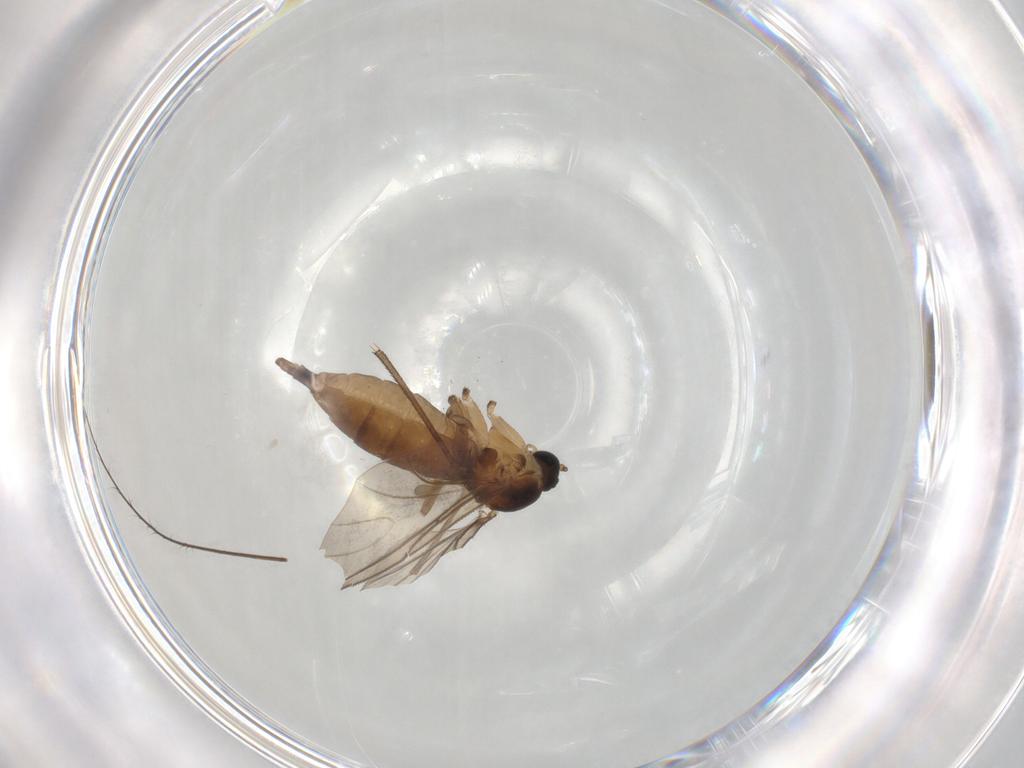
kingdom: Animalia
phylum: Arthropoda
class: Insecta
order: Diptera
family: Sciaridae
